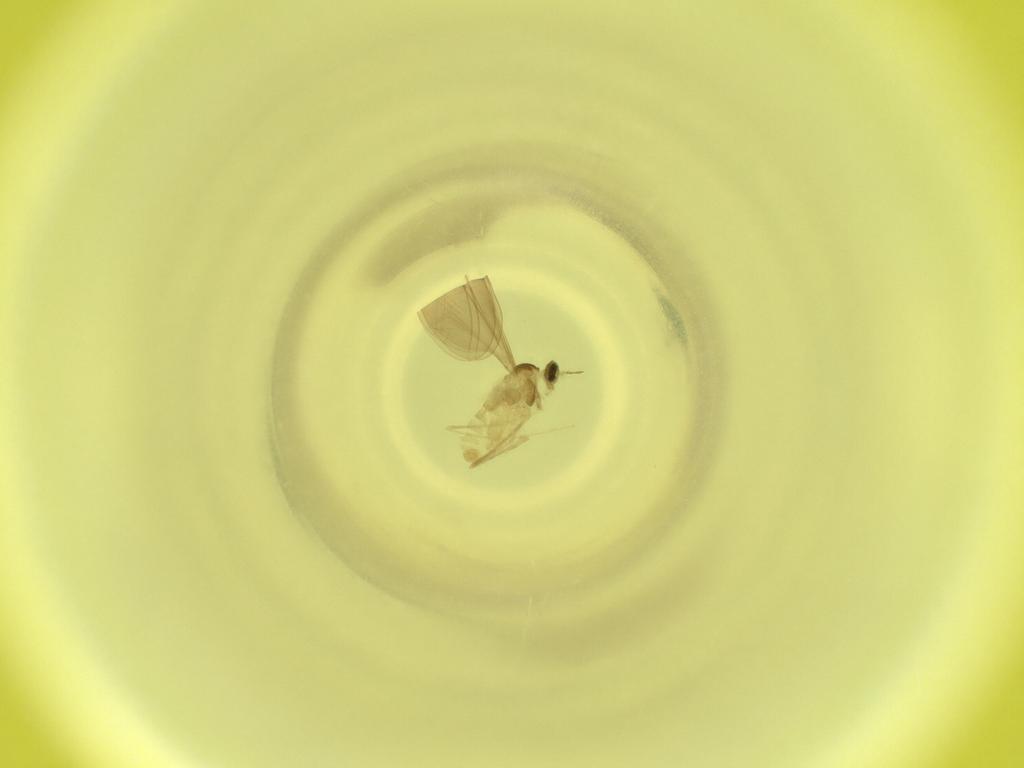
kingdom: Animalia
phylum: Arthropoda
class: Insecta
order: Diptera
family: Cecidomyiidae
